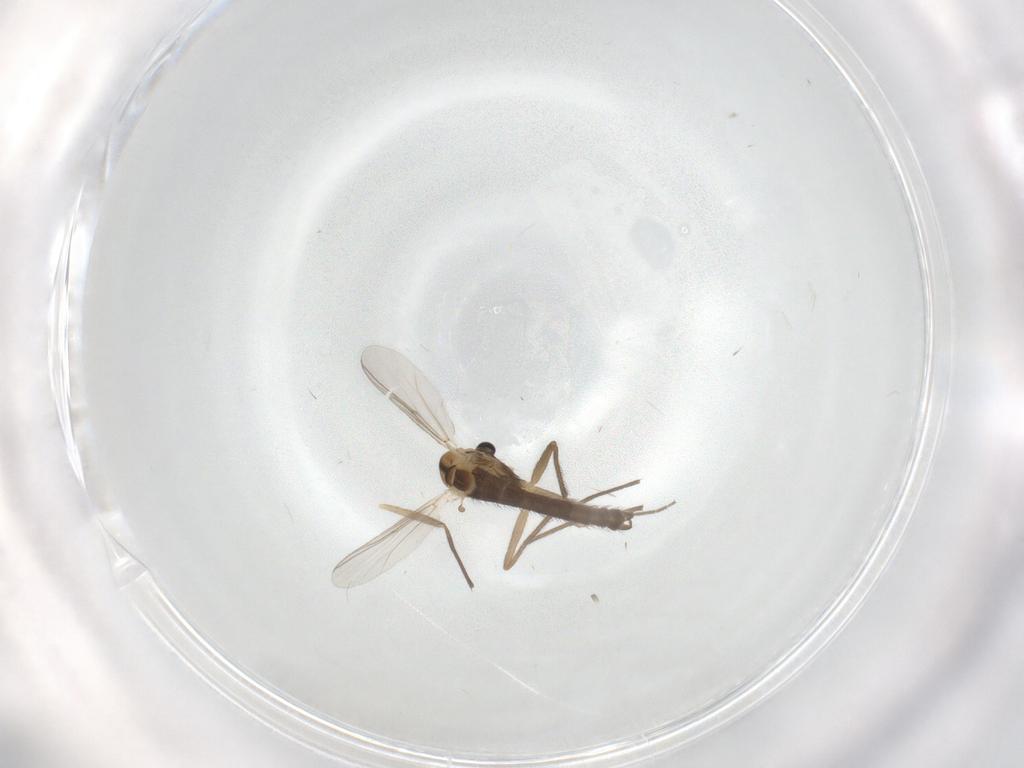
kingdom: Animalia
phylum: Arthropoda
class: Insecta
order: Diptera
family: Chironomidae
